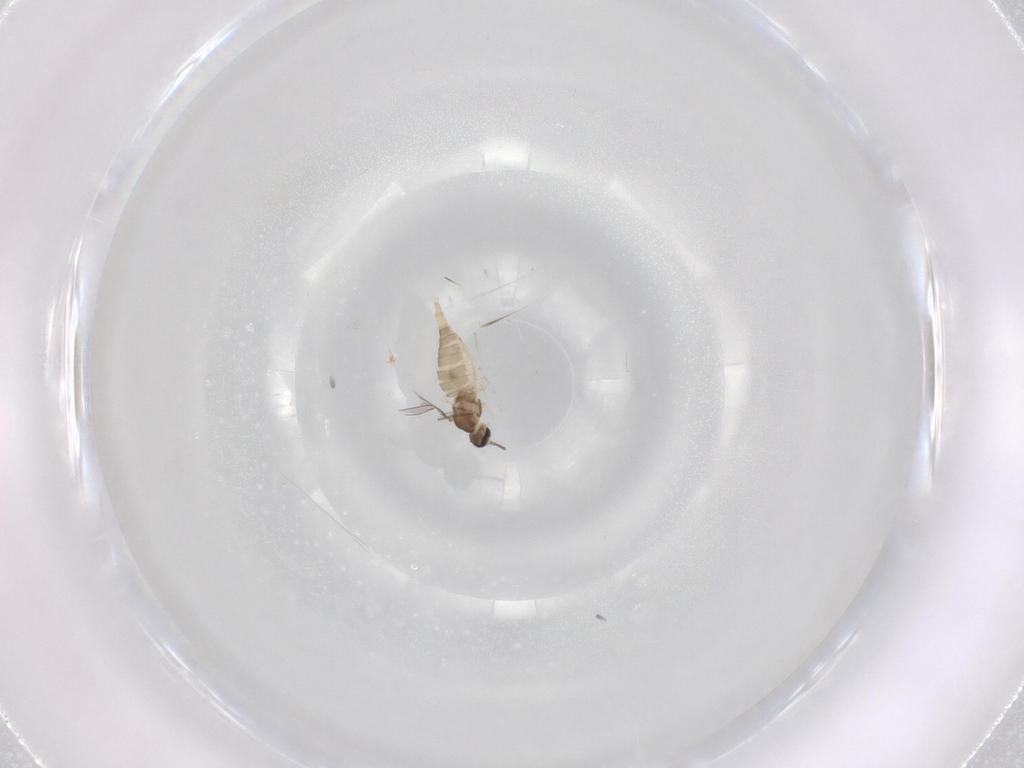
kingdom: Animalia
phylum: Arthropoda
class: Insecta
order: Diptera
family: Cecidomyiidae
